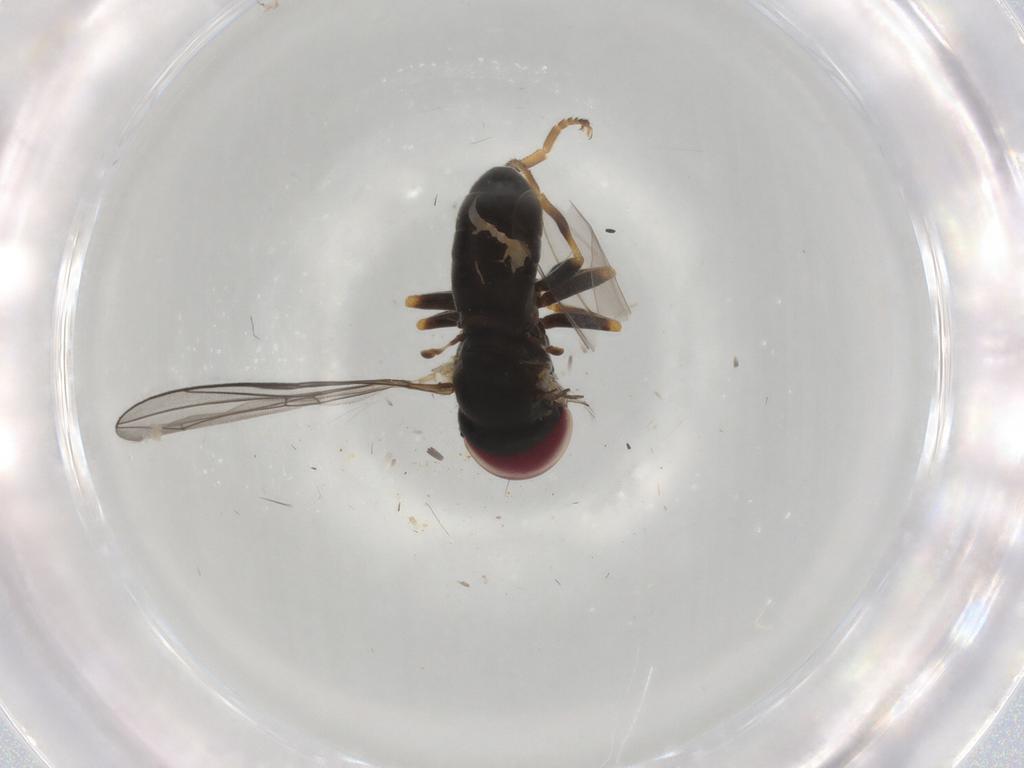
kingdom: Animalia
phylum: Arthropoda
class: Insecta
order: Diptera
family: Pipunculidae
